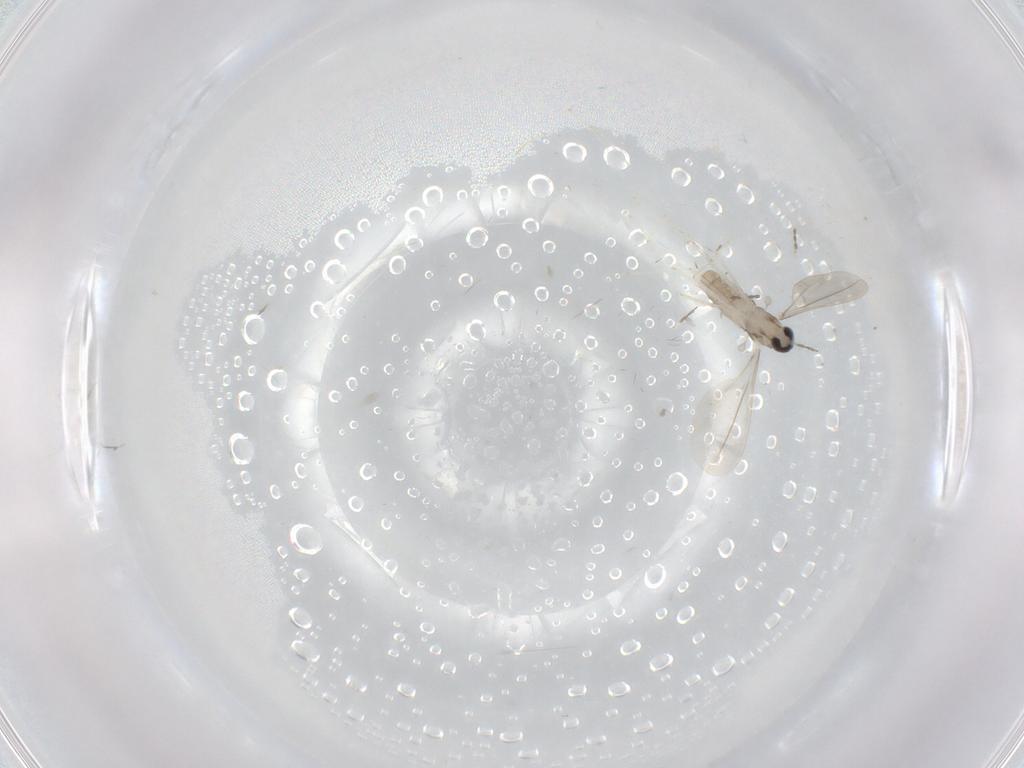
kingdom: Animalia
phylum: Arthropoda
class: Insecta
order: Diptera
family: Cecidomyiidae
